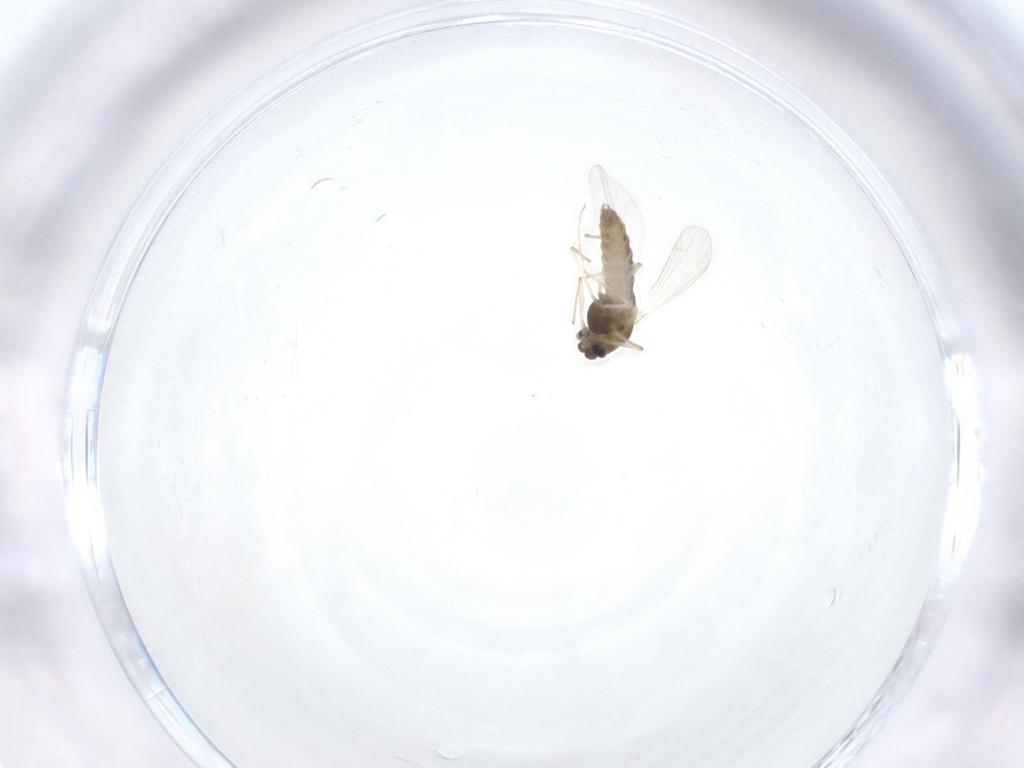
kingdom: Animalia
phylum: Arthropoda
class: Insecta
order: Diptera
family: Chironomidae
